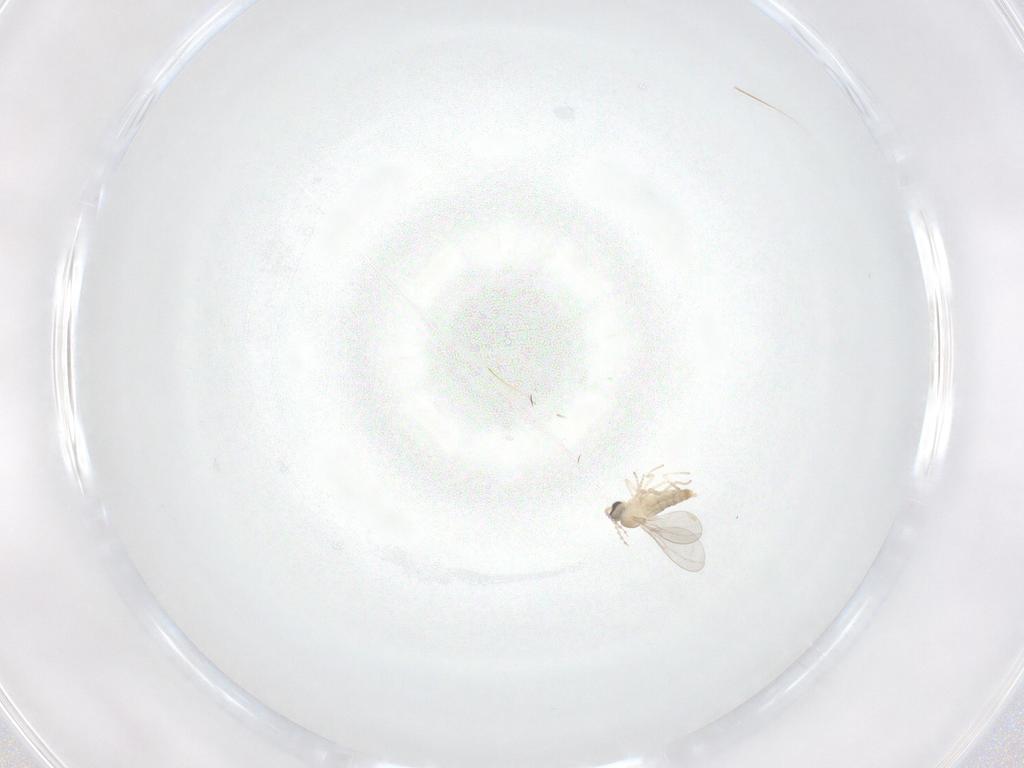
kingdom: Animalia
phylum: Arthropoda
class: Insecta
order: Diptera
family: Cecidomyiidae
